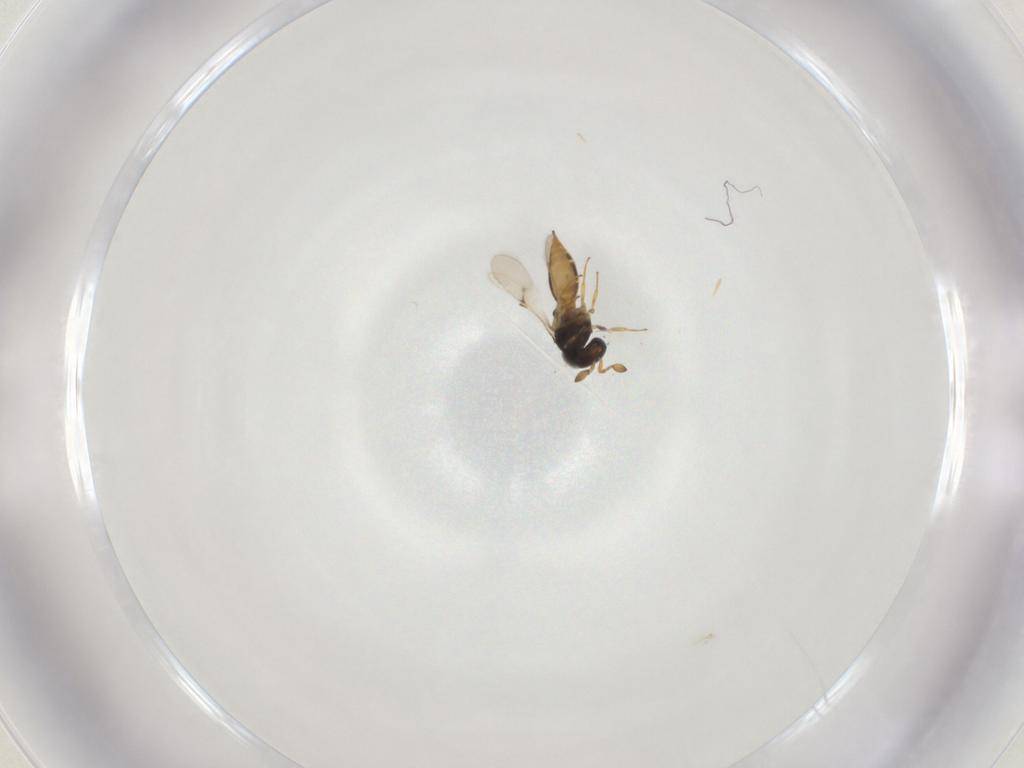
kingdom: Animalia
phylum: Arthropoda
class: Insecta
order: Hymenoptera
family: Scelionidae
